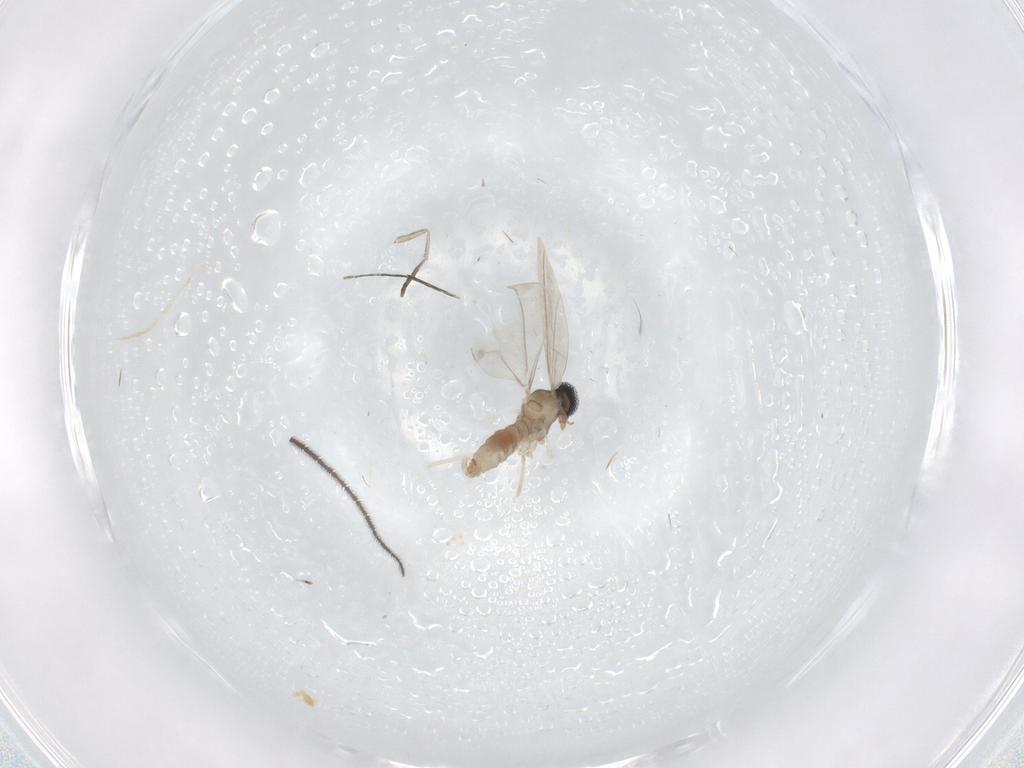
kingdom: Animalia
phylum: Arthropoda
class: Insecta
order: Diptera
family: Cecidomyiidae
